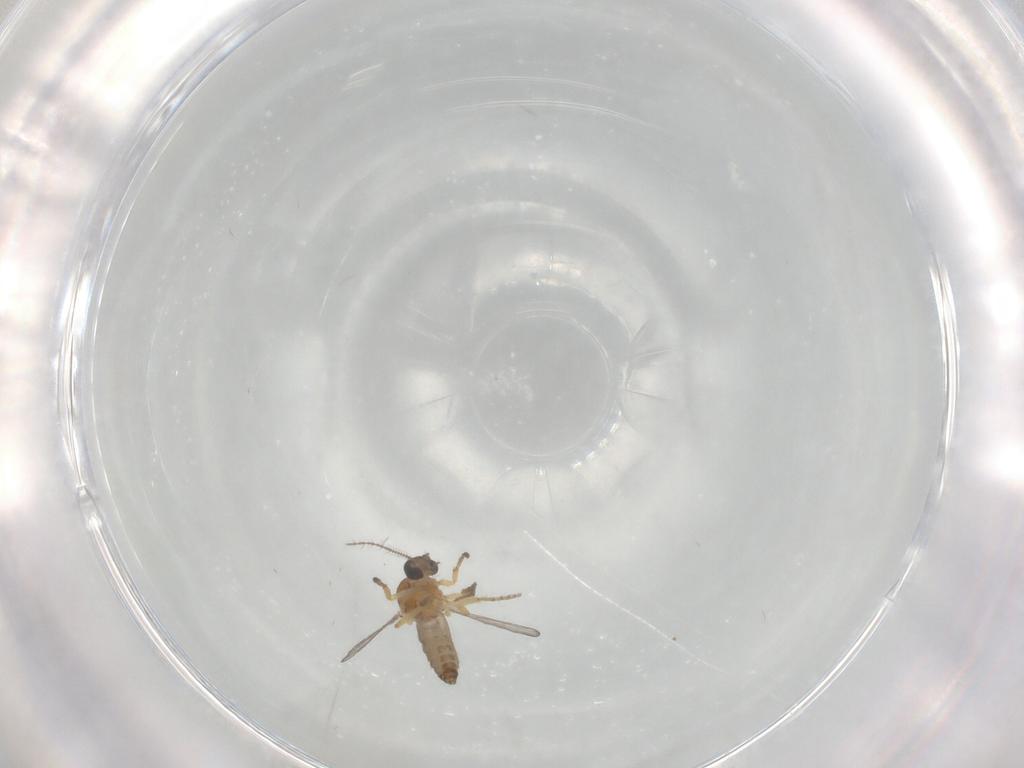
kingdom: Animalia
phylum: Arthropoda
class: Insecta
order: Diptera
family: Ceratopogonidae
